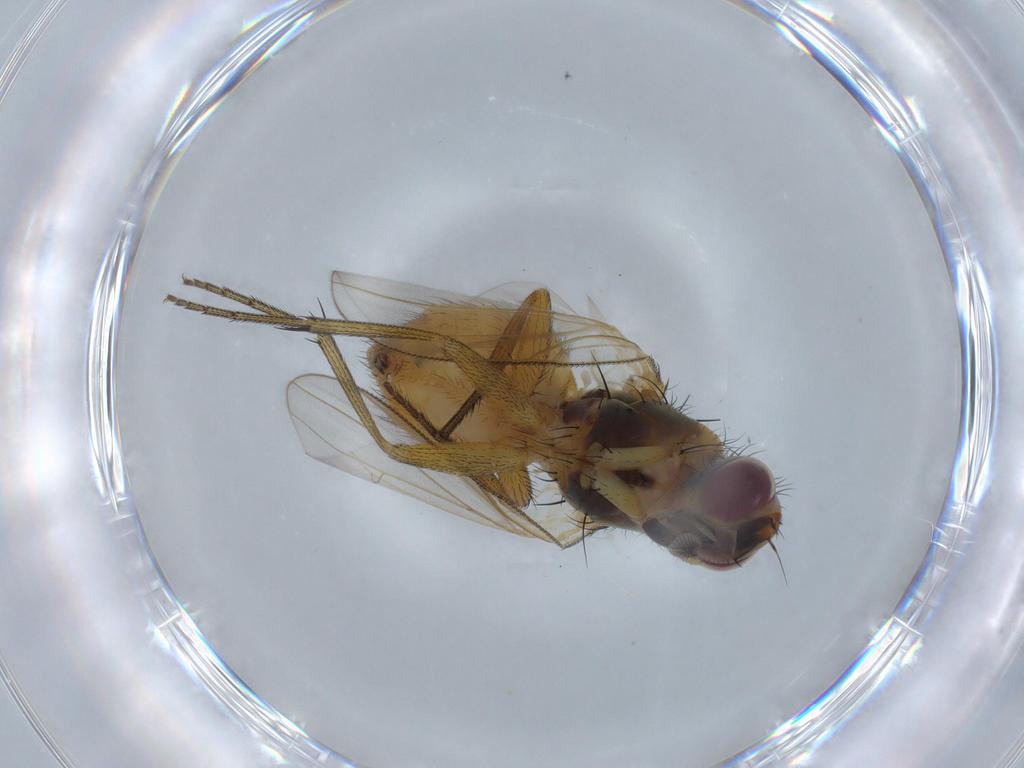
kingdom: Animalia
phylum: Arthropoda
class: Insecta
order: Diptera
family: Muscidae
